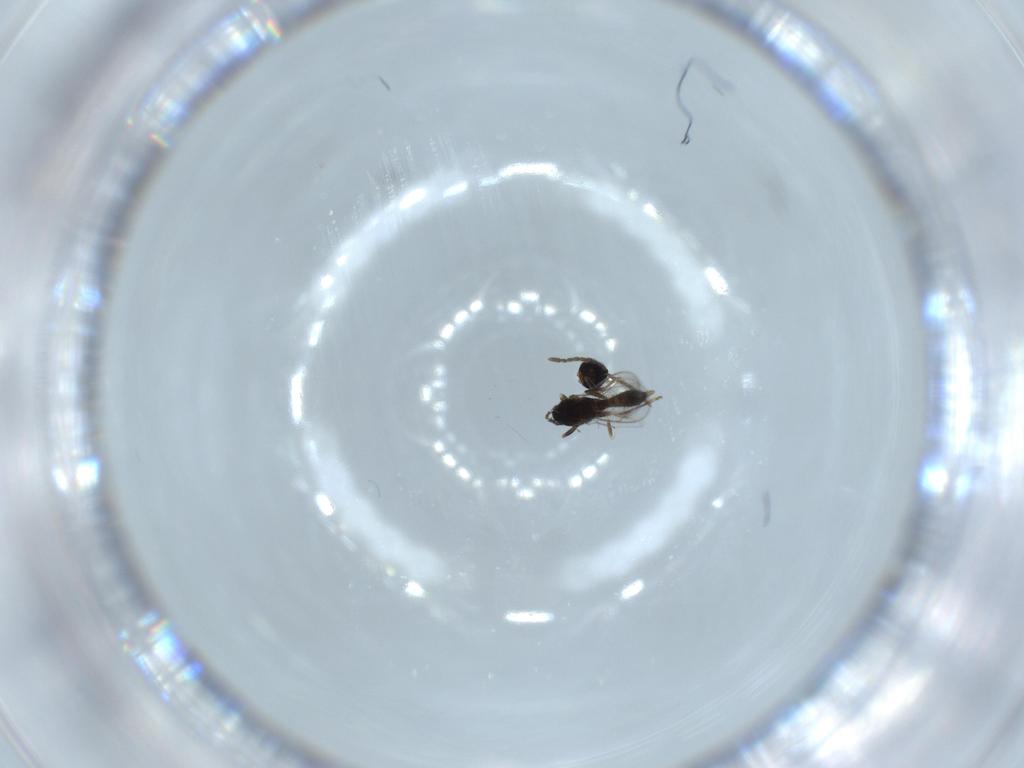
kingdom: Animalia
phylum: Arthropoda
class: Insecta
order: Hymenoptera
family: Eupelmidae
